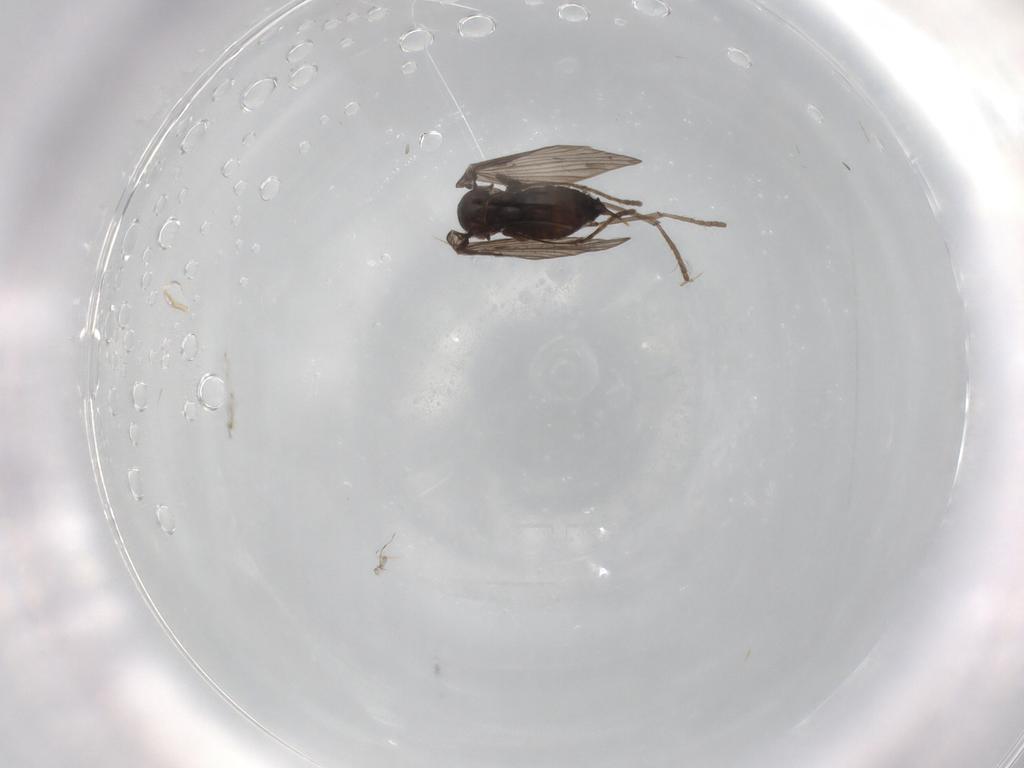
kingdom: Animalia
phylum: Arthropoda
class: Insecta
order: Diptera
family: Psychodidae
